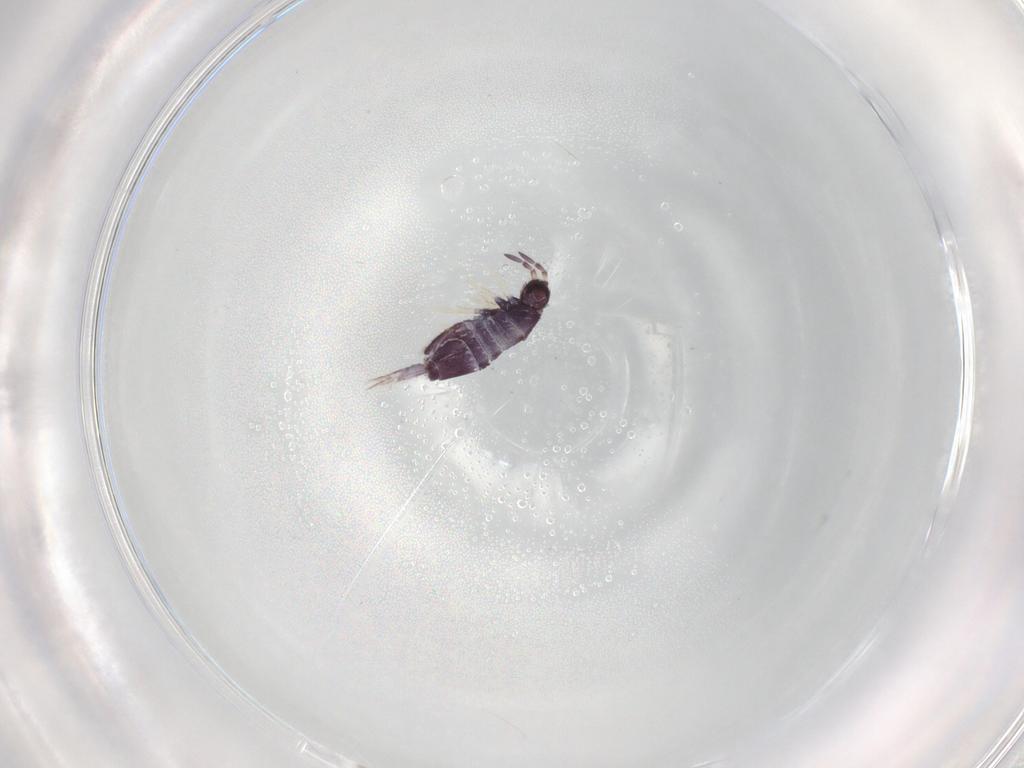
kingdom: Animalia
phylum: Arthropoda
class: Collembola
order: Entomobryomorpha
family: Entomobryidae
